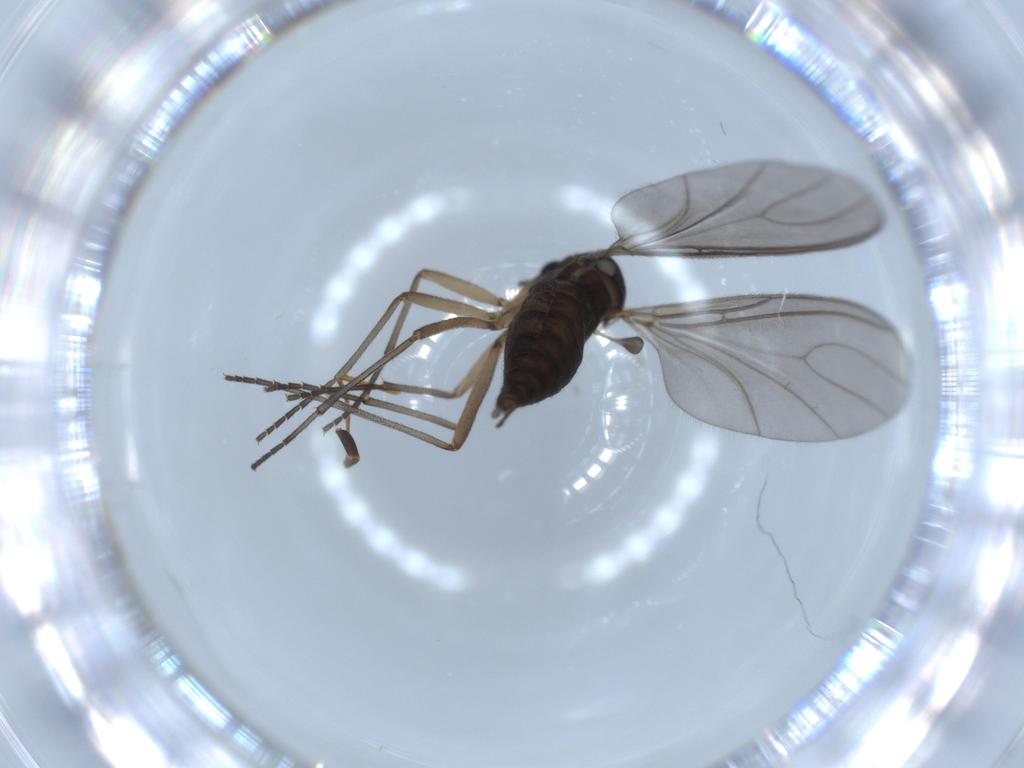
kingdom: Animalia
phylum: Arthropoda
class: Insecta
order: Diptera
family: Sciaridae
